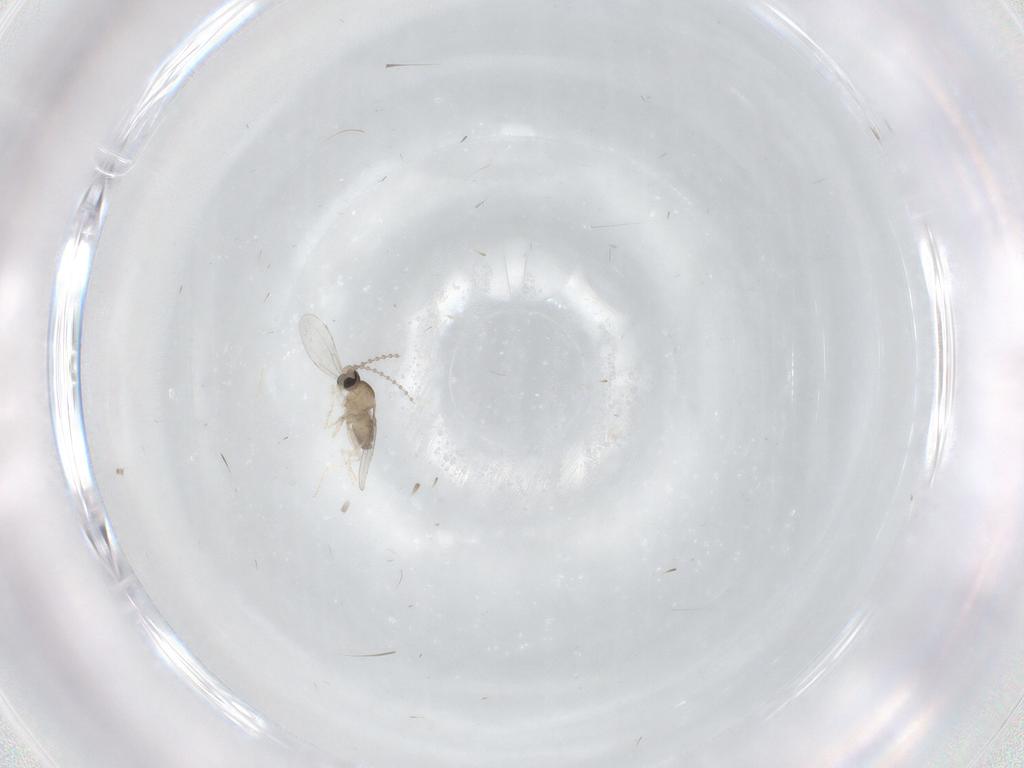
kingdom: Animalia
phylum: Arthropoda
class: Insecta
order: Diptera
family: Cecidomyiidae
